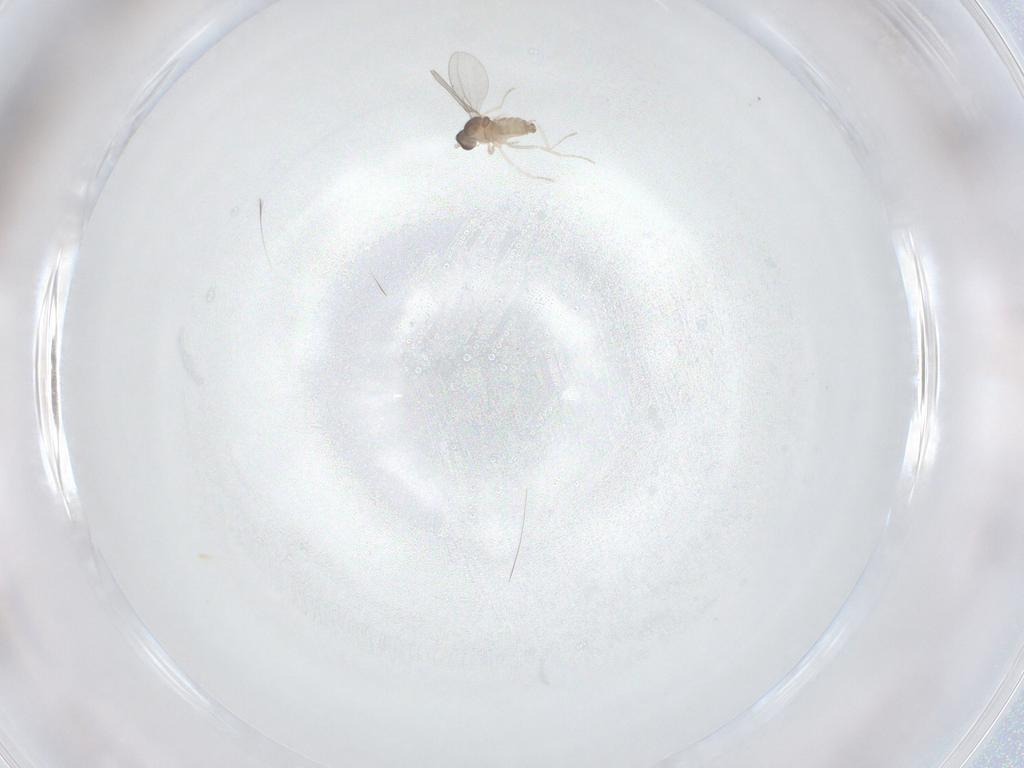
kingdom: Animalia
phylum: Arthropoda
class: Insecta
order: Diptera
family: Cecidomyiidae
